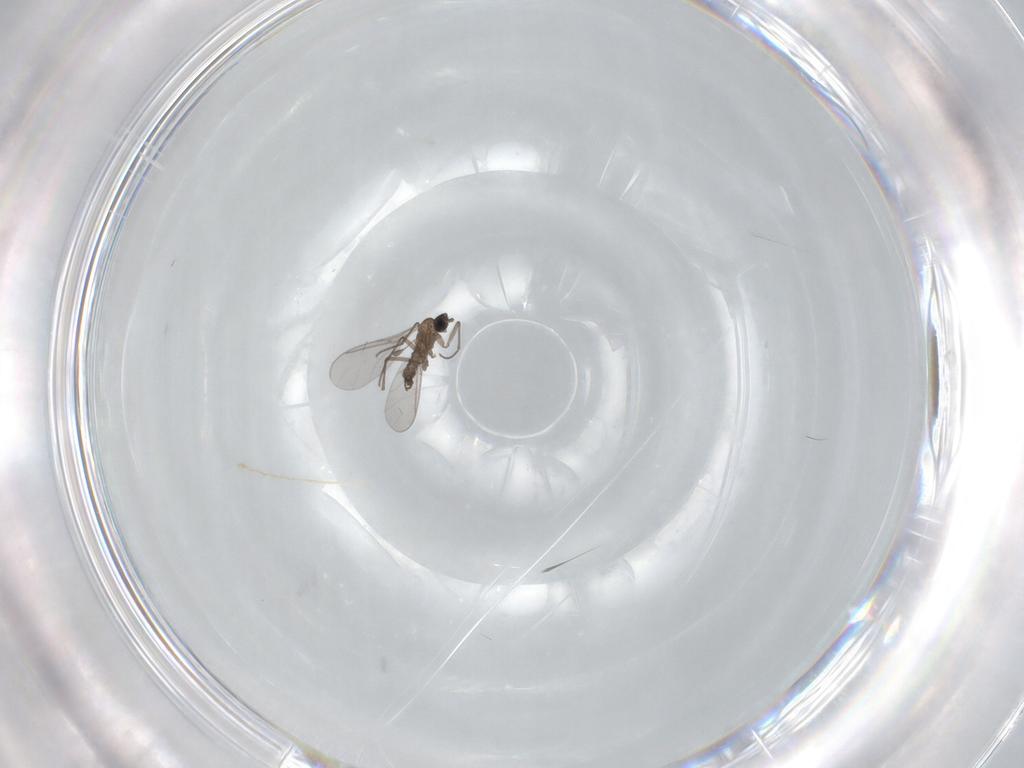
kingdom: Animalia
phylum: Arthropoda
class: Insecta
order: Diptera
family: Sciaridae
